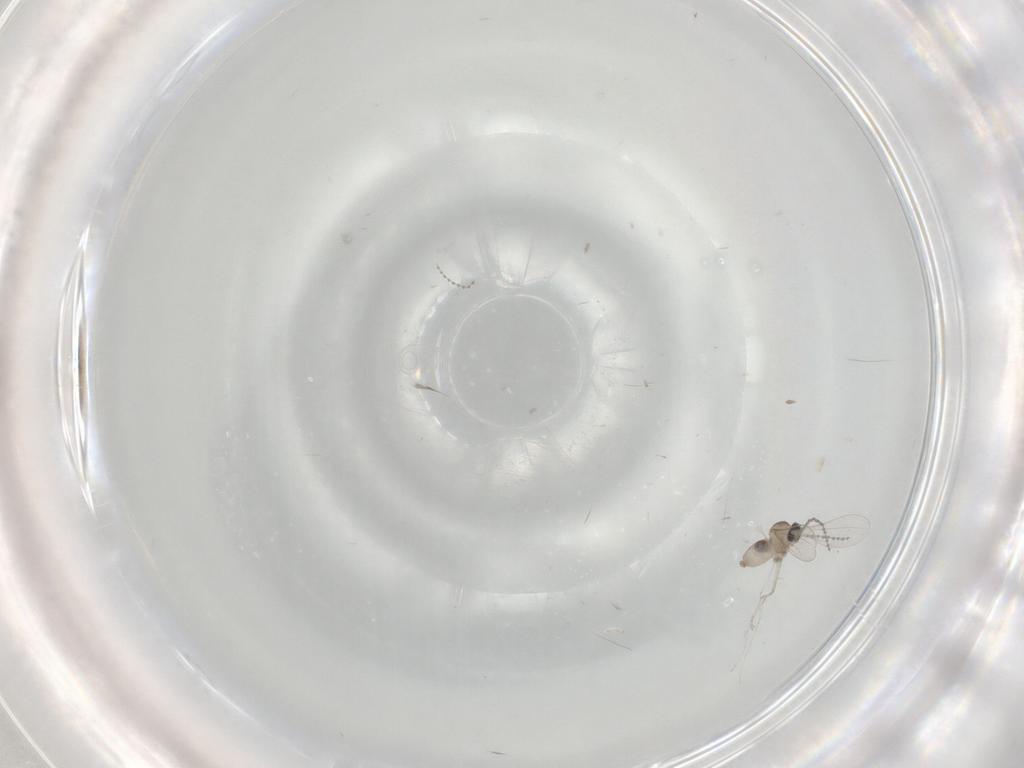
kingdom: Animalia
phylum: Arthropoda
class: Insecta
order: Diptera
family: Cecidomyiidae
